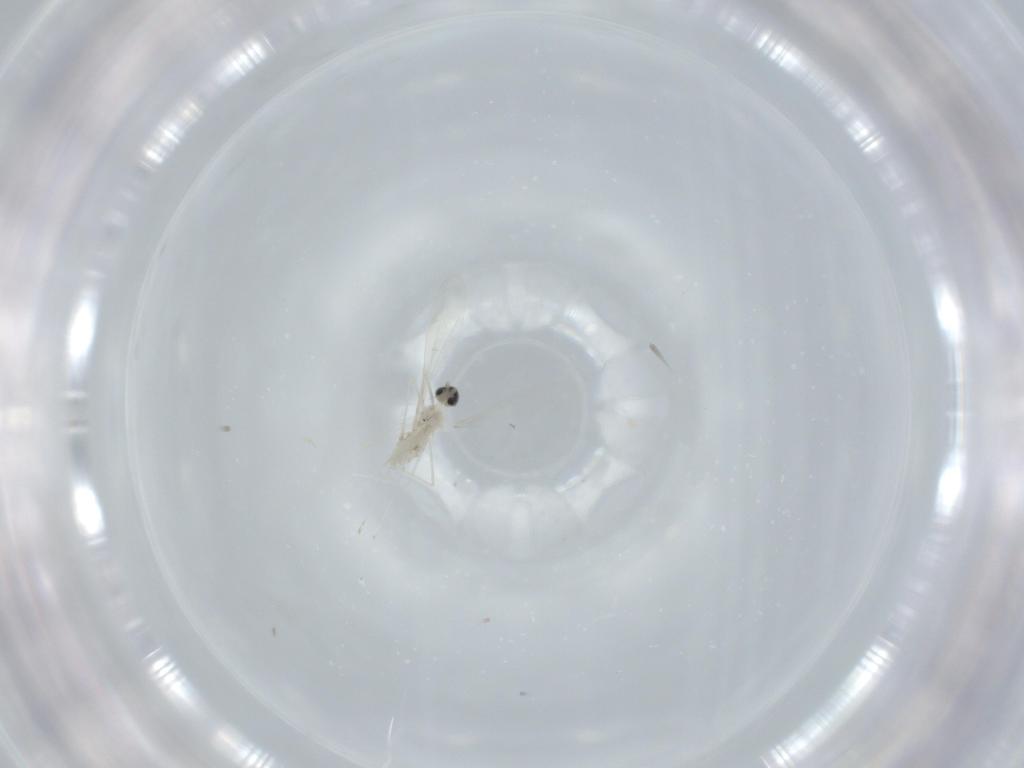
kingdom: Animalia
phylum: Arthropoda
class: Insecta
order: Diptera
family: Cecidomyiidae
